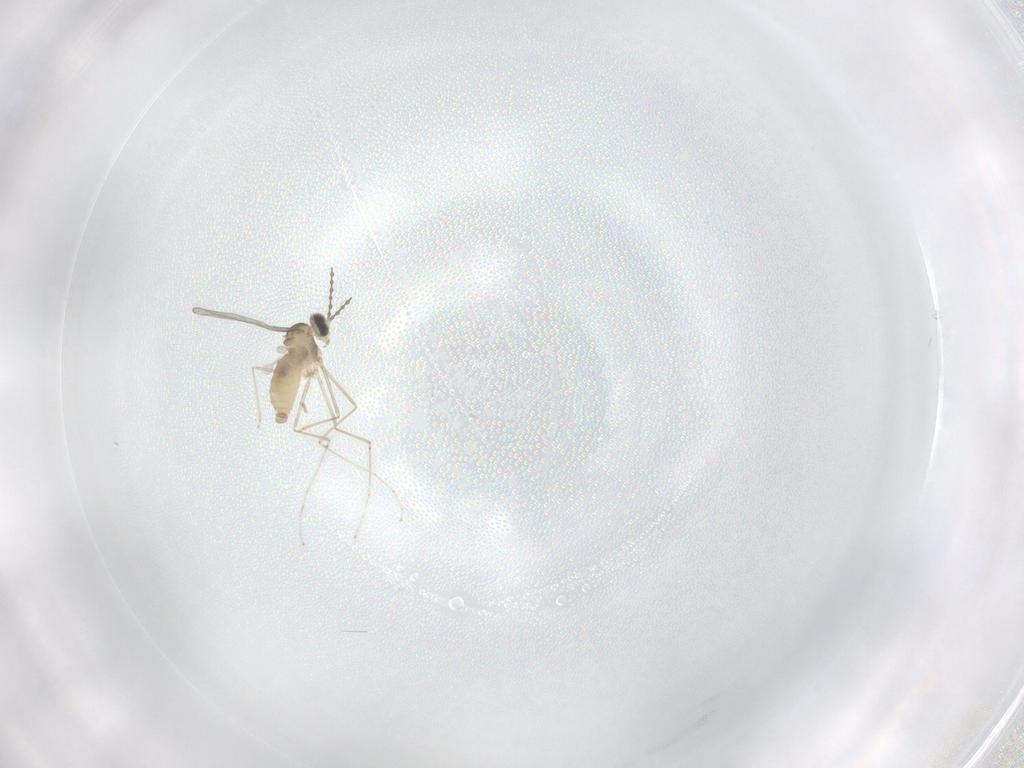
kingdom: Animalia
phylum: Arthropoda
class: Insecta
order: Diptera
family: Cecidomyiidae
